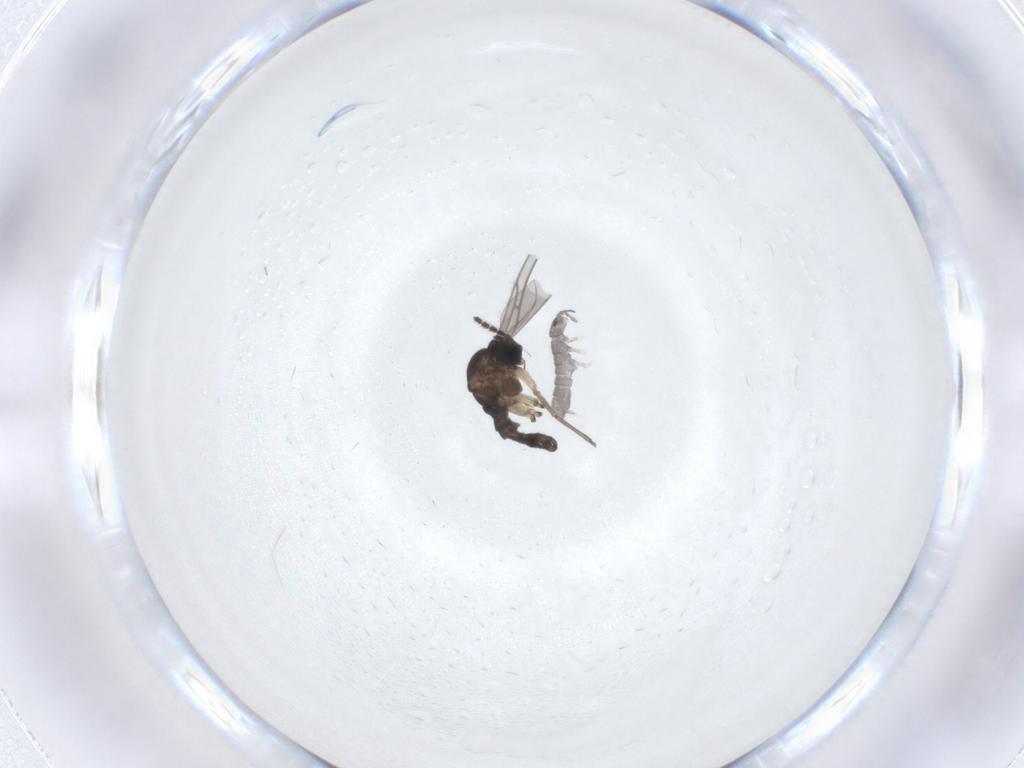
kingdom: Animalia
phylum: Arthropoda
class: Insecta
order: Diptera
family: Sciaridae
